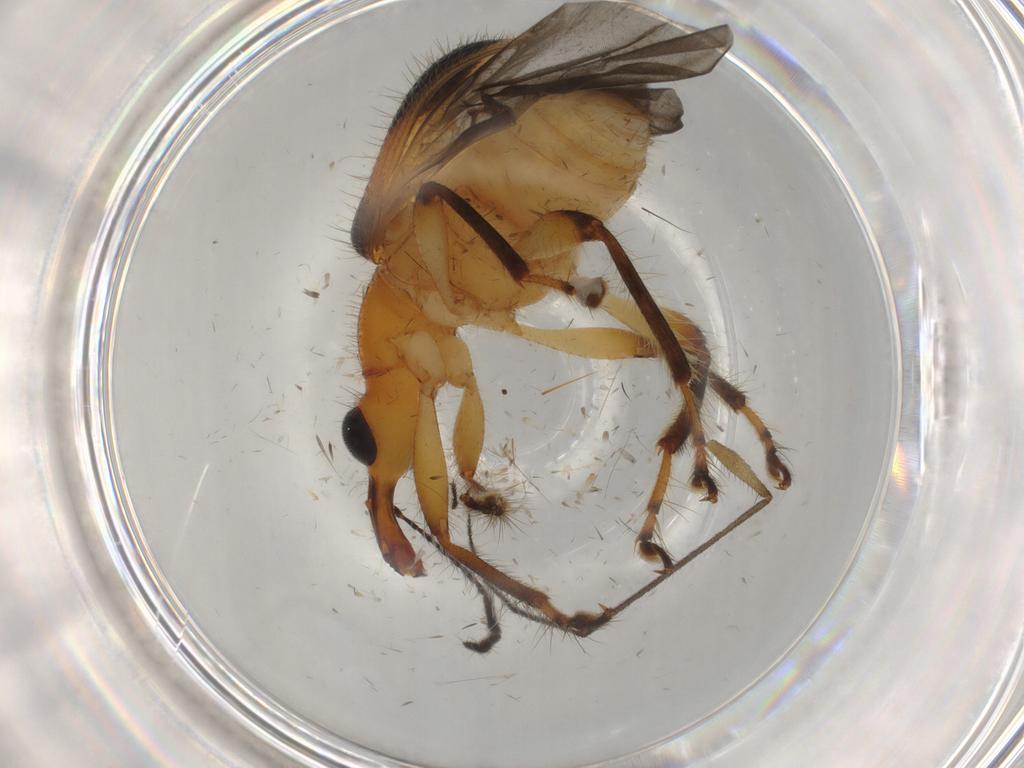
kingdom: Animalia
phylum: Arthropoda
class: Insecta
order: Coleoptera
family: Attelabidae
